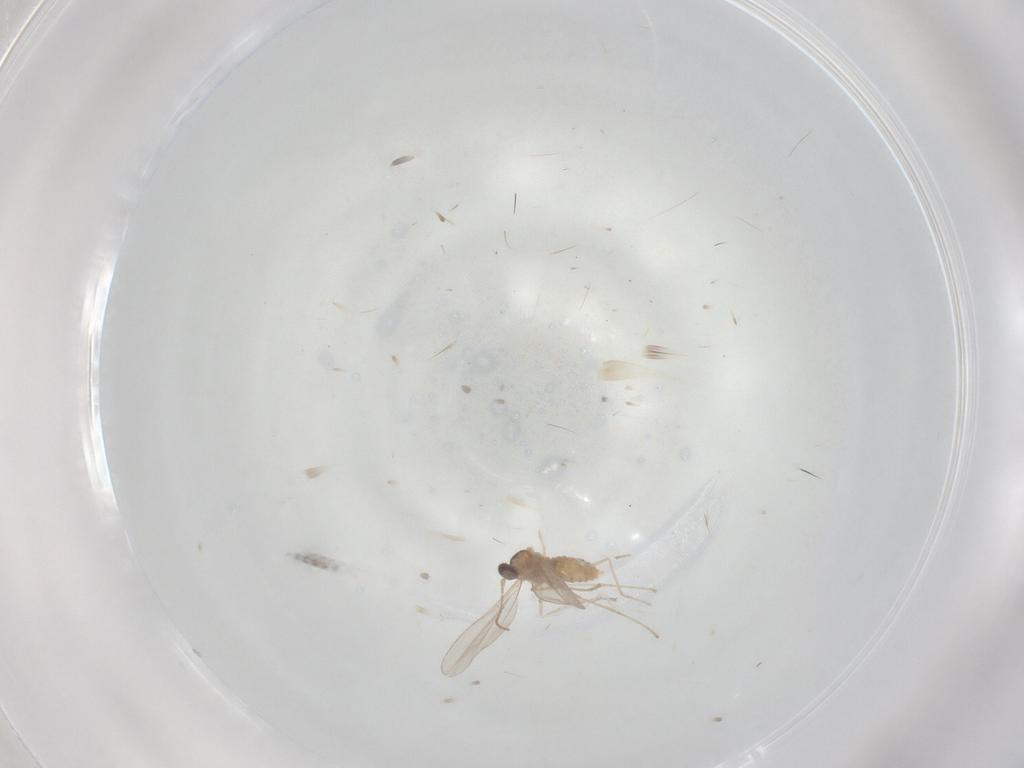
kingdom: Animalia
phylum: Arthropoda
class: Insecta
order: Diptera
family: Cecidomyiidae
